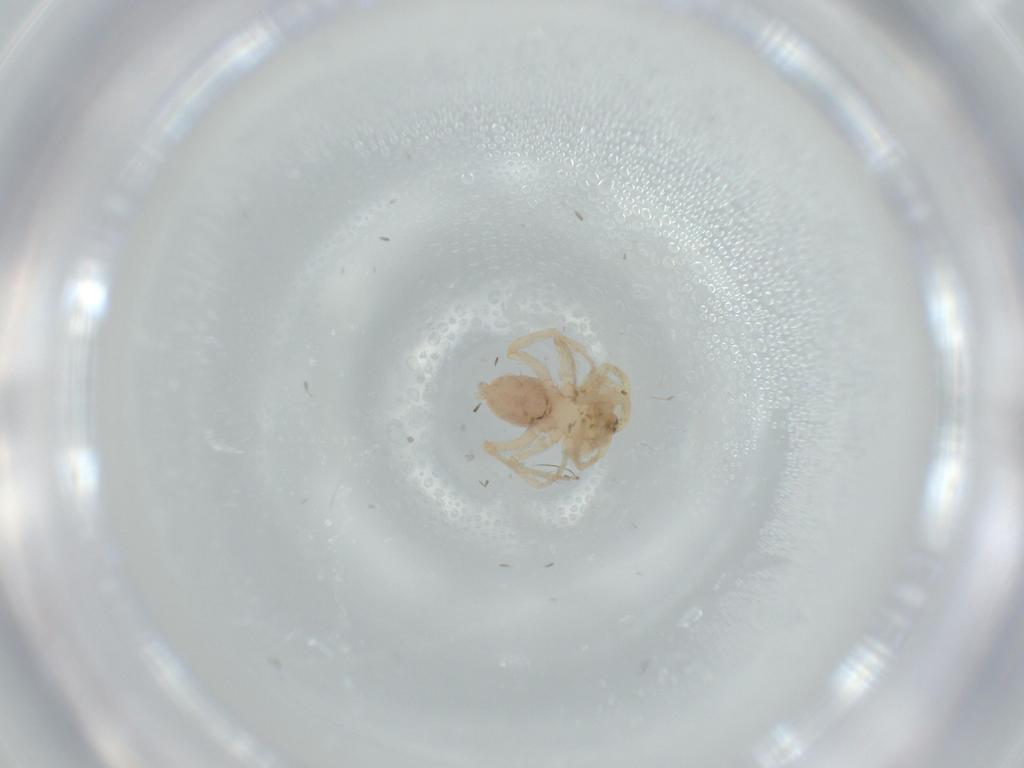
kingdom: Animalia
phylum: Arthropoda
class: Arachnida
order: Araneae
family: Oonopidae
